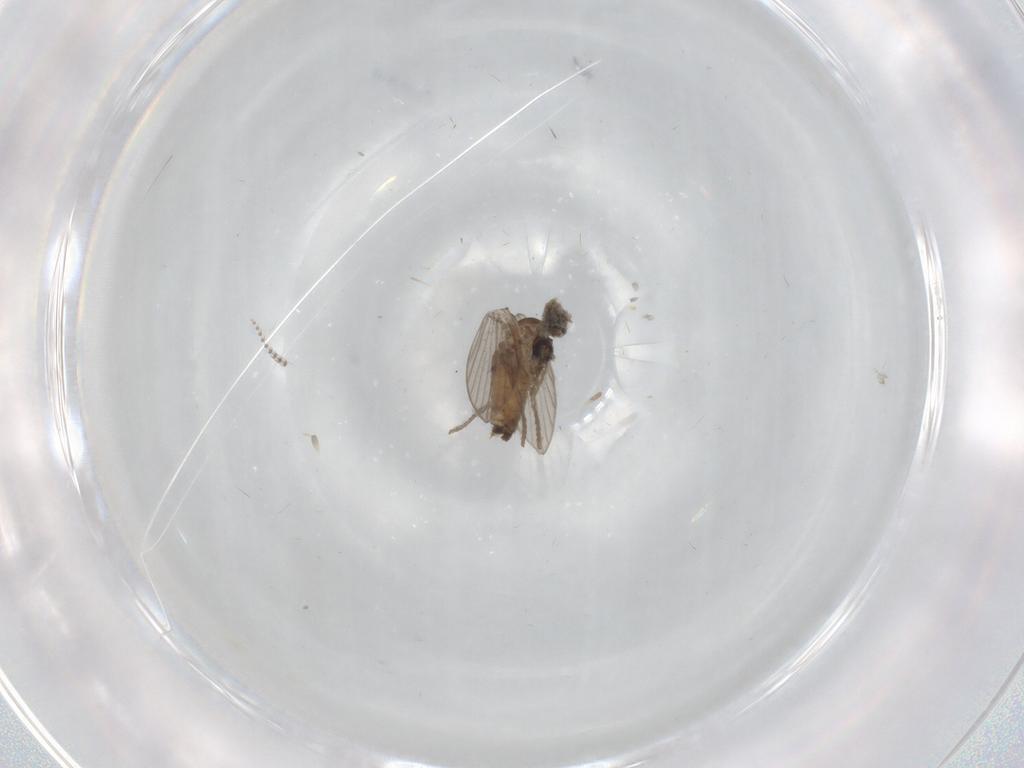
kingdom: Animalia
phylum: Arthropoda
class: Insecta
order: Diptera
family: Psychodidae
